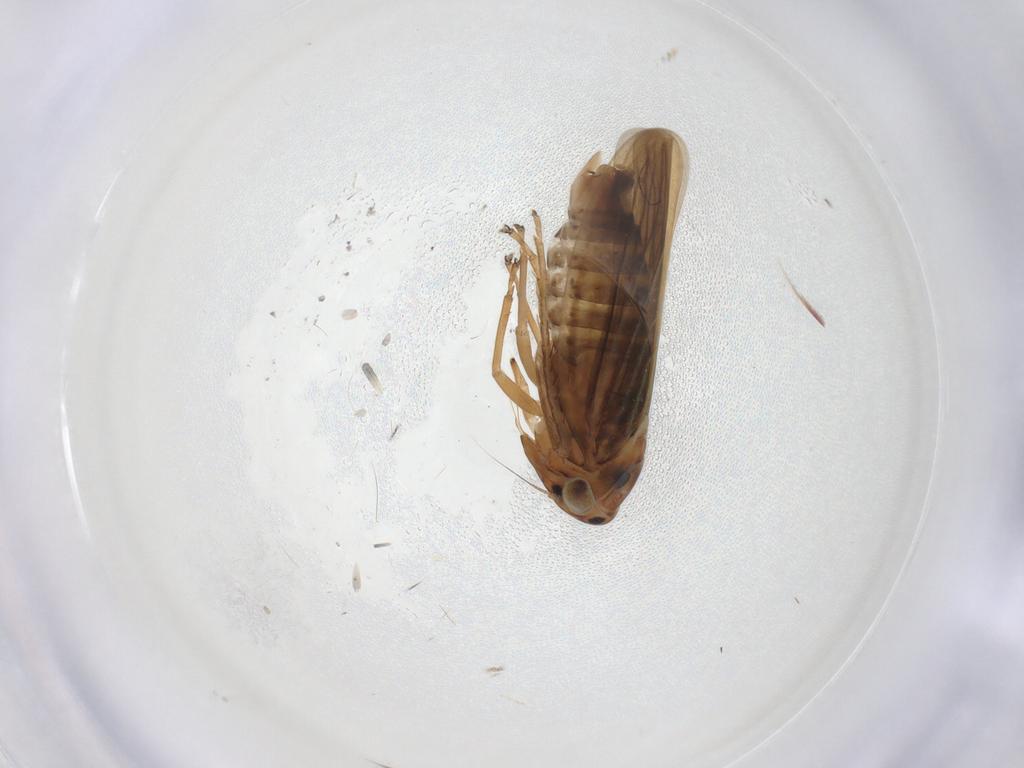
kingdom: Animalia
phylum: Arthropoda
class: Insecta
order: Hemiptera
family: Cicadellidae
